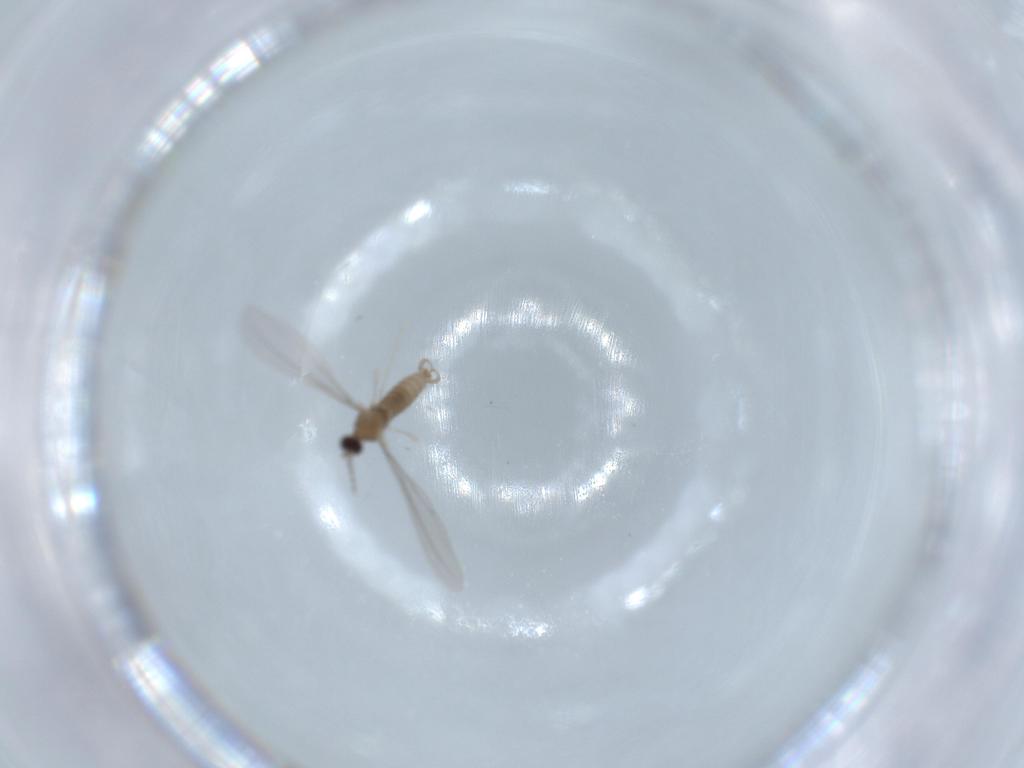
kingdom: Animalia
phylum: Arthropoda
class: Insecta
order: Diptera
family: Cecidomyiidae
